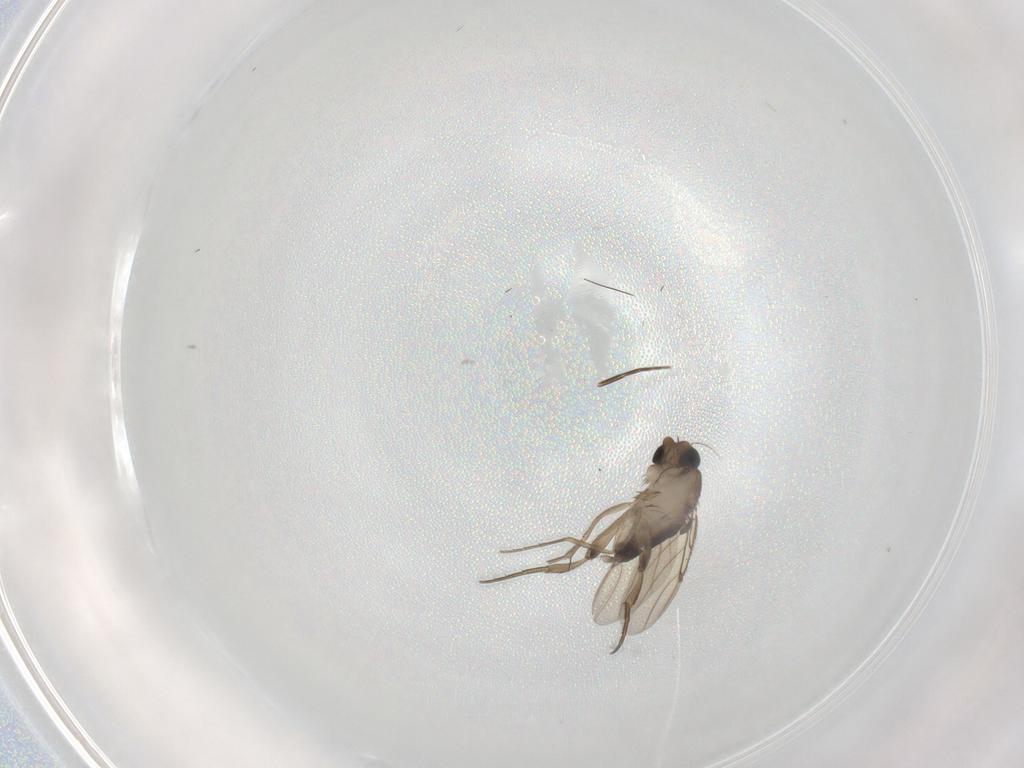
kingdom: Animalia
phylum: Arthropoda
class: Insecta
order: Diptera
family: Phoridae
